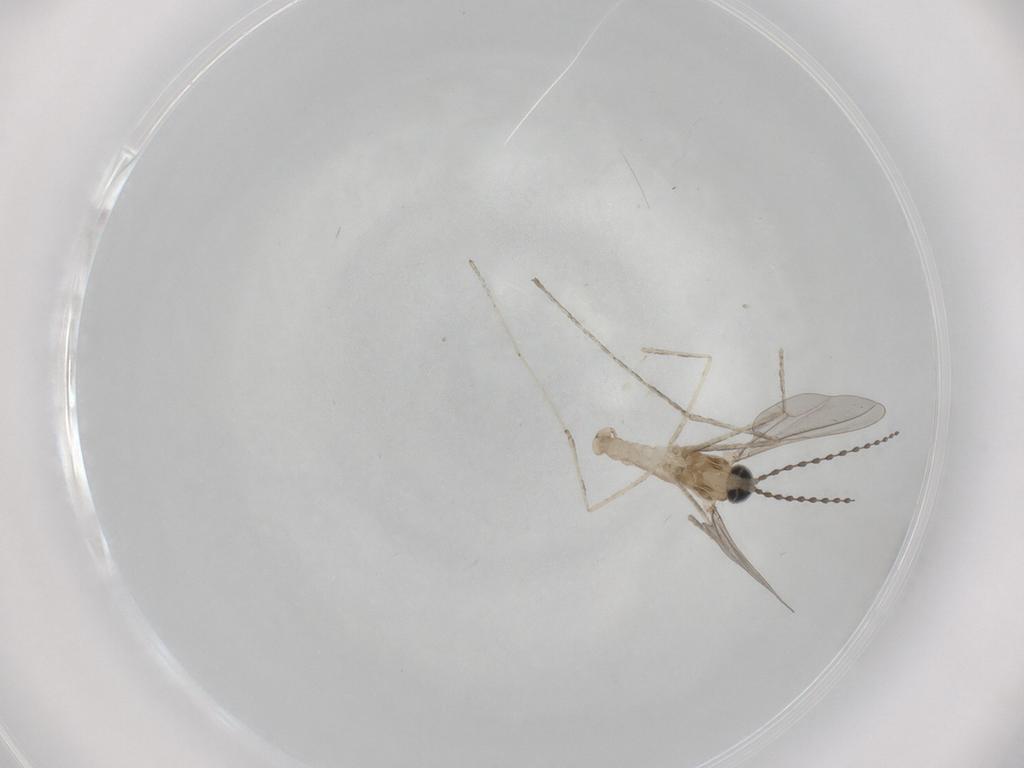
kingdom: Animalia
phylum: Arthropoda
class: Insecta
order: Diptera
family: Cecidomyiidae
